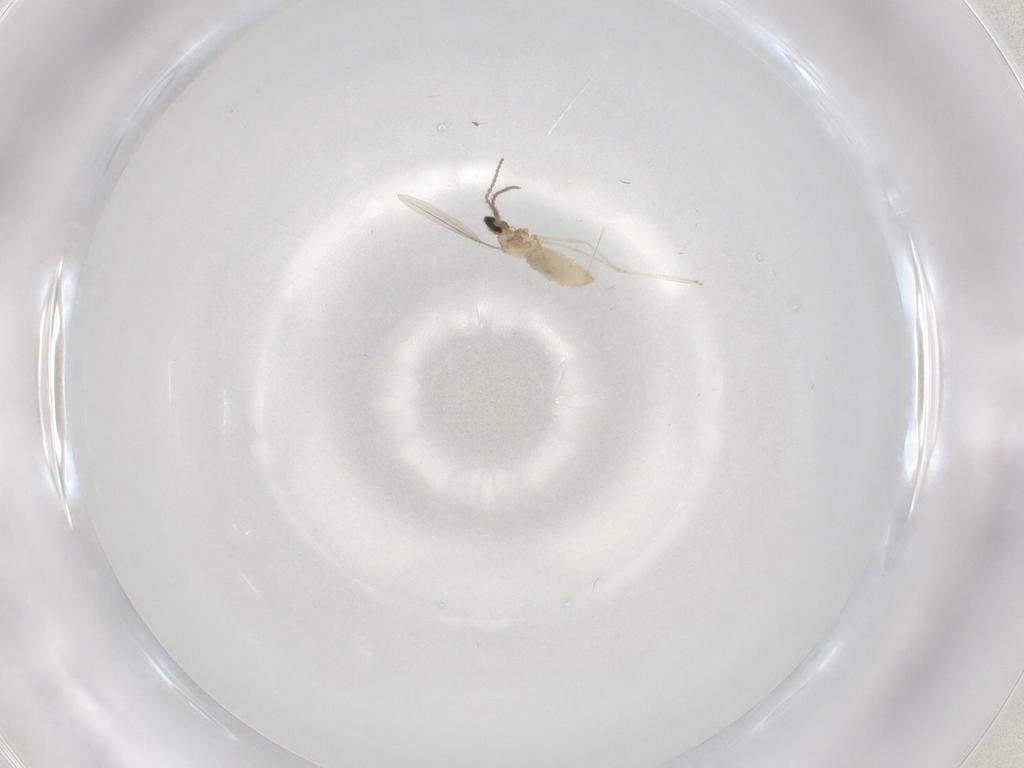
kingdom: Animalia
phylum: Arthropoda
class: Insecta
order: Diptera
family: Cecidomyiidae
